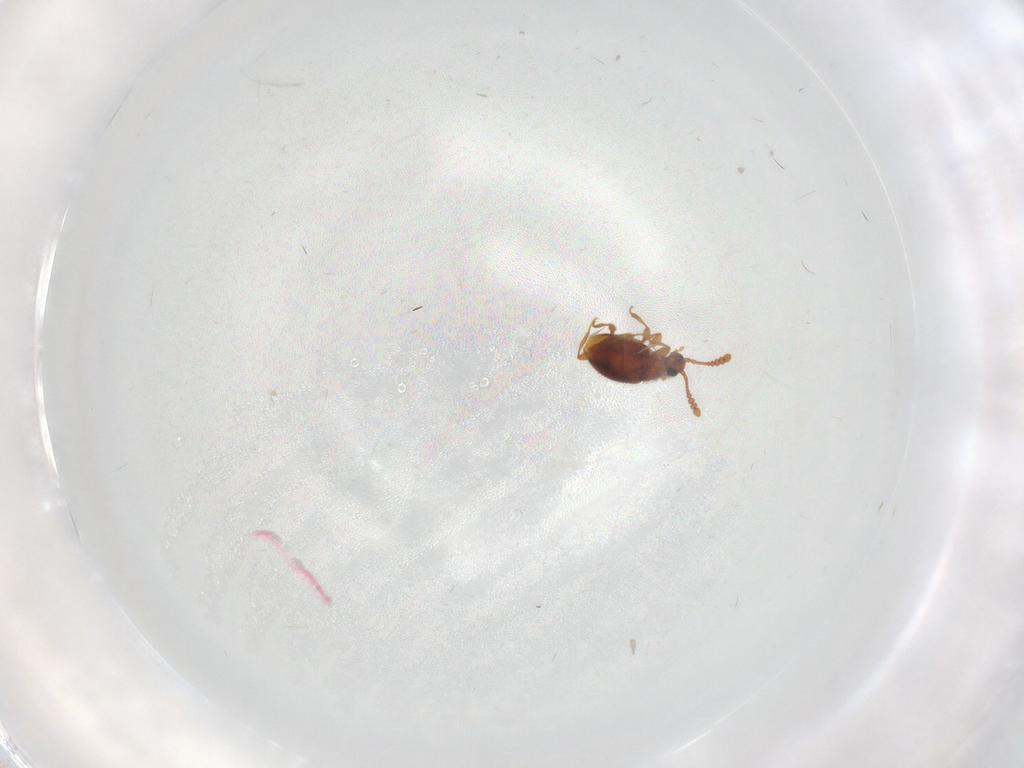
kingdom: Animalia
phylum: Arthropoda
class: Insecta
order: Coleoptera
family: Staphylinidae
